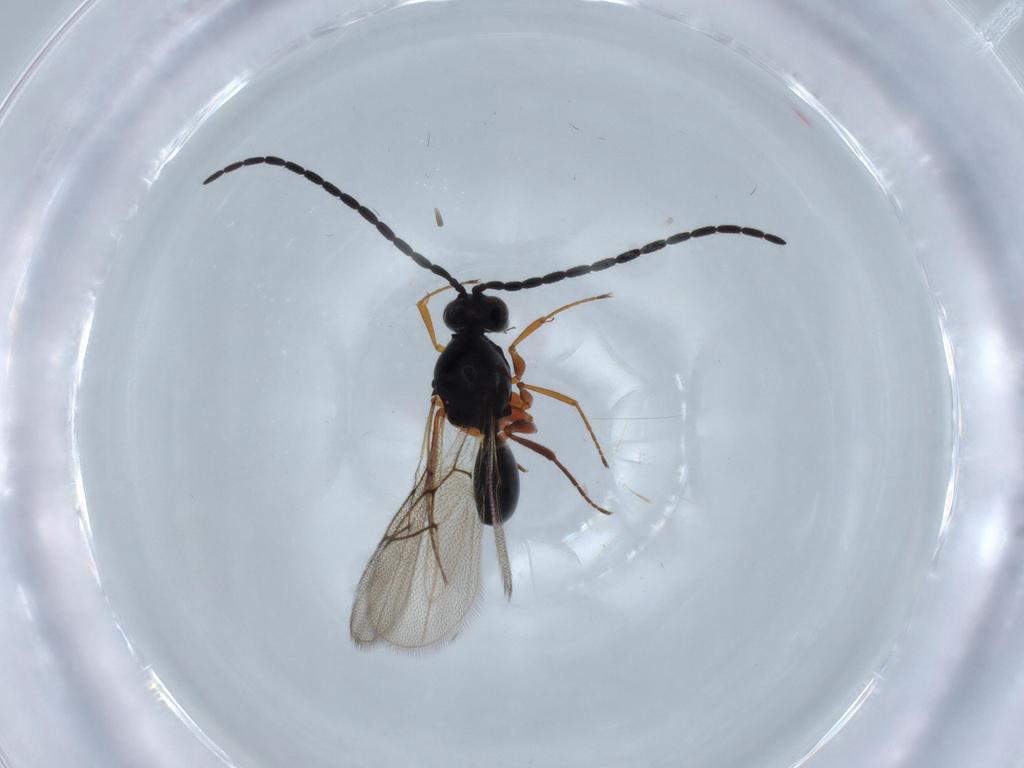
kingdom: Animalia
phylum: Arthropoda
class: Insecta
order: Hymenoptera
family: Figitidae
